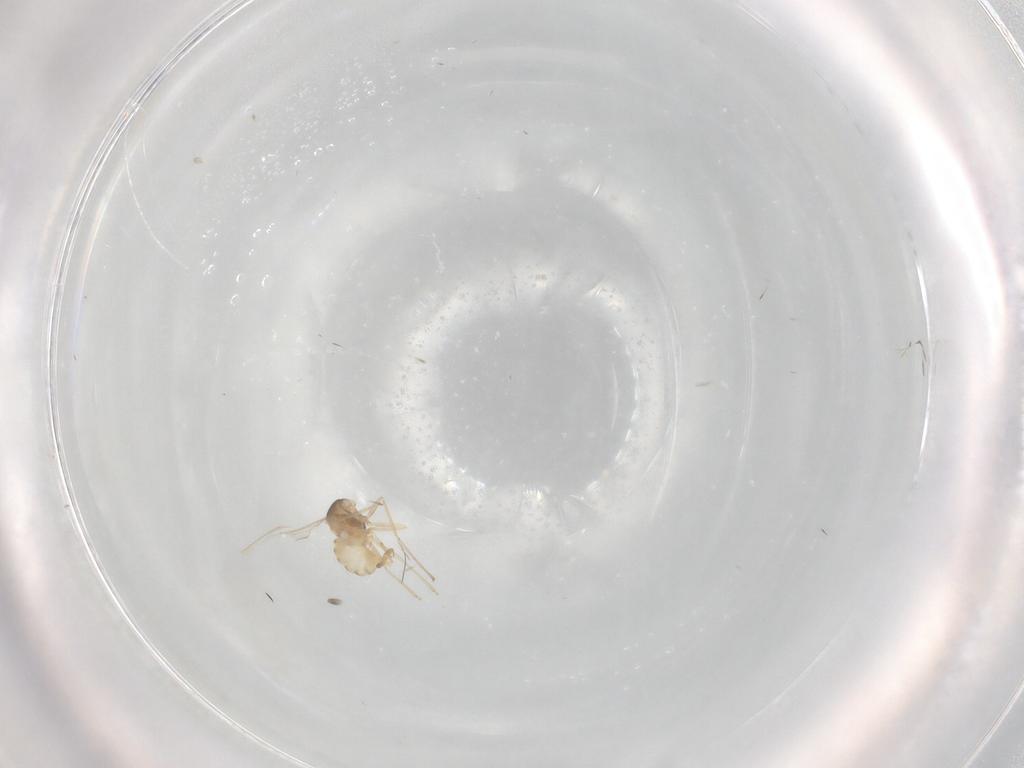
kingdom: Animalia
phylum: Arthropoda
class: Insecta
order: Diptera
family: Cecidomyiidae
